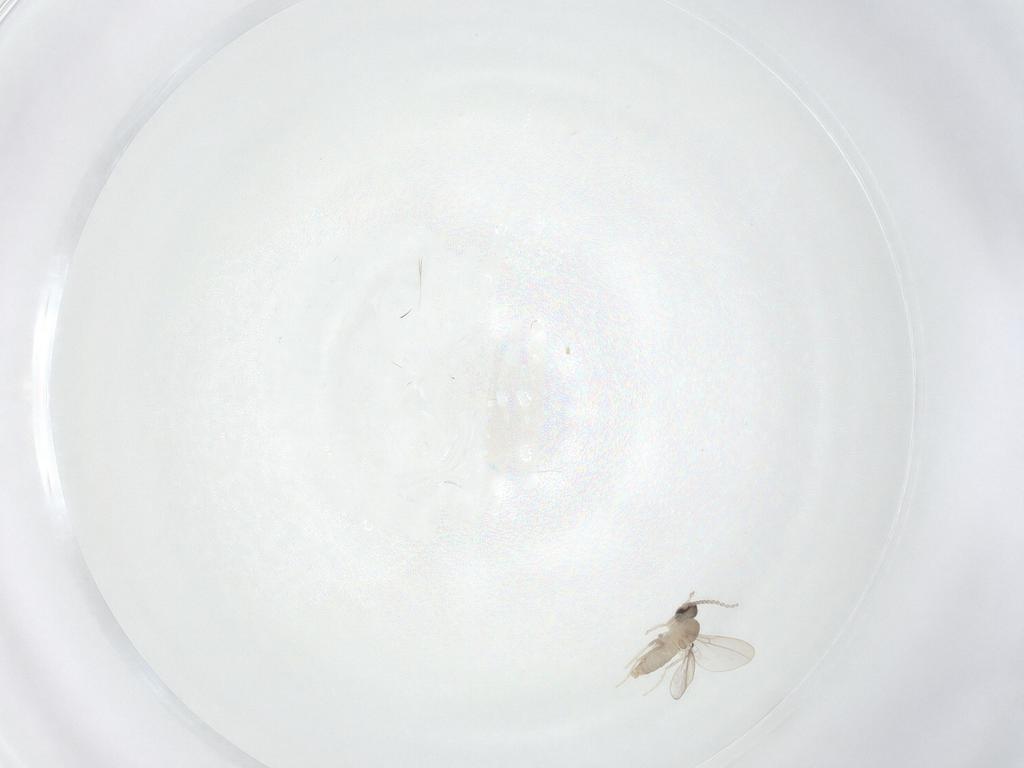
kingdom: Animalia
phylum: Arthropoda
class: Insecta
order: Diptera
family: Cecidomyiidae
